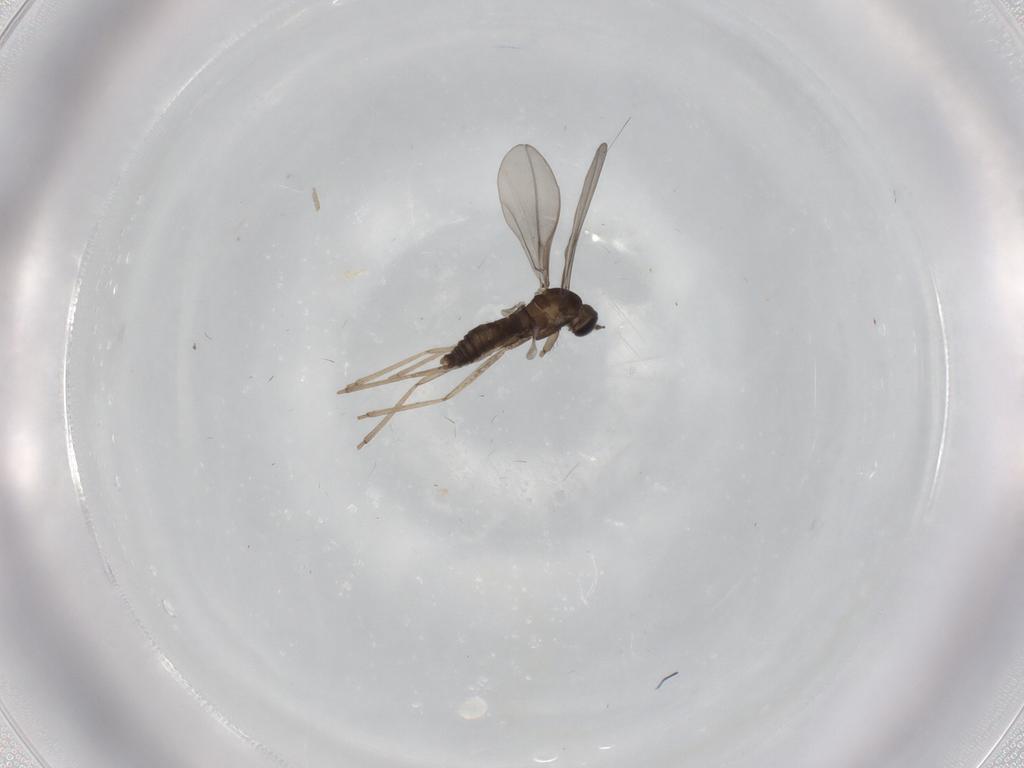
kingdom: Animalia
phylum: Arthropoda
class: Insecta
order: Diptera
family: Cecidomyiidae
